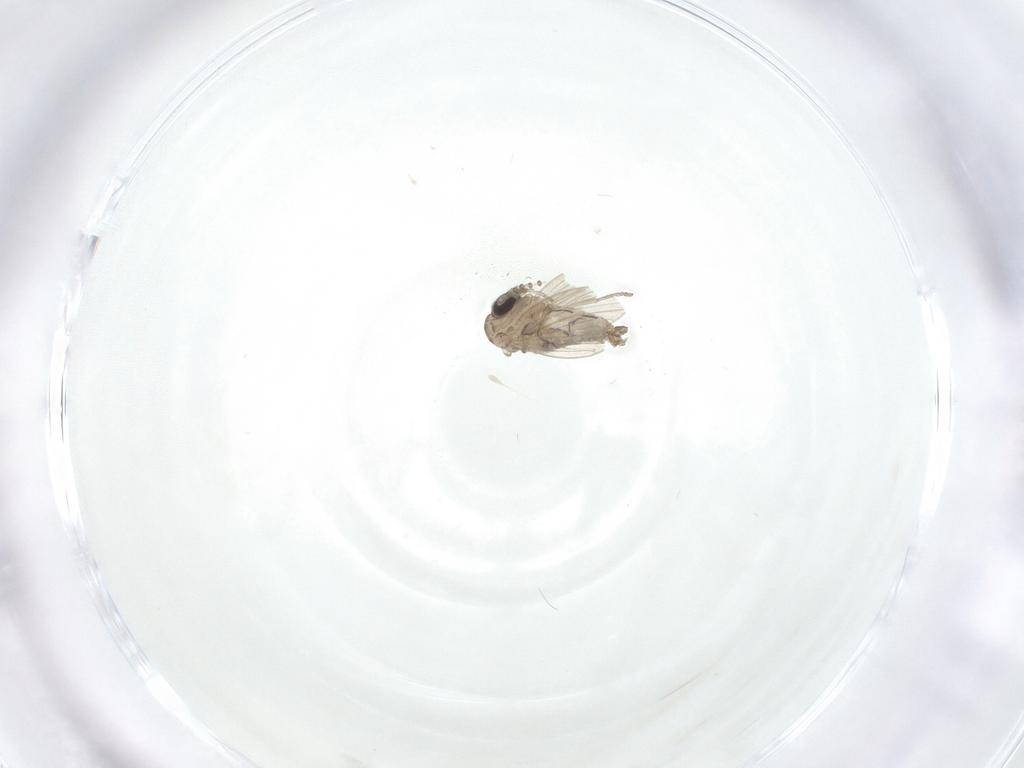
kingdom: Animalia
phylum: Arthropoda
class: Insecta
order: Diptera
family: Psychodidae
